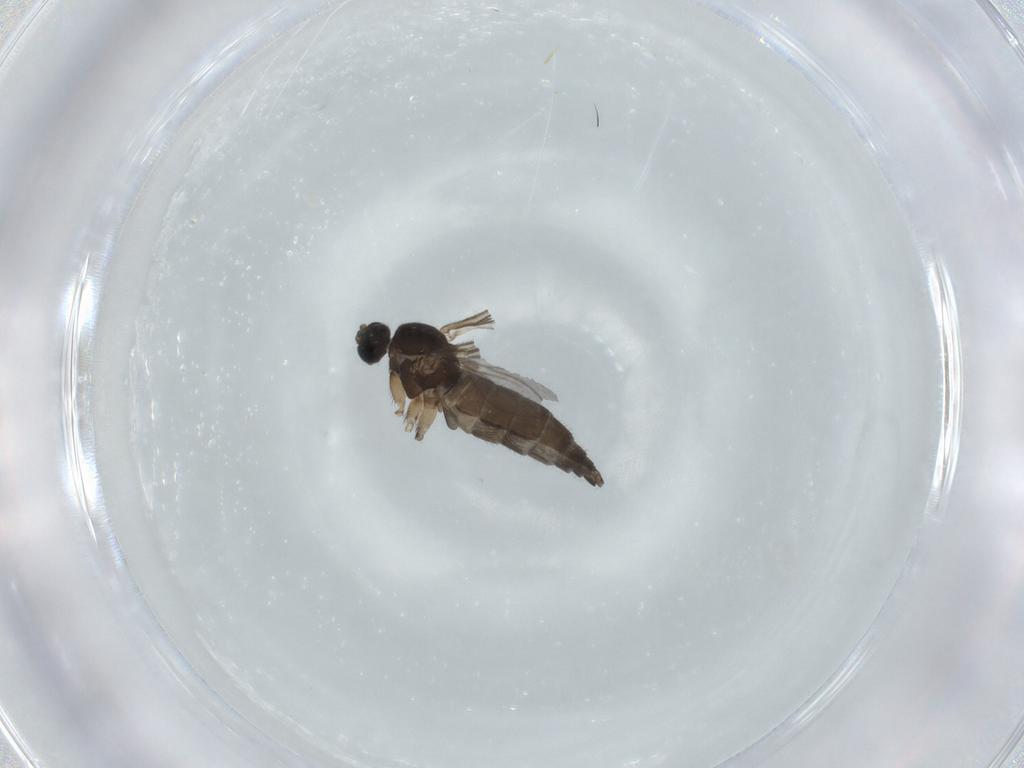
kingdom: Animalia
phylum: Arthropoda
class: Insecta
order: Diptera
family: Sciaridae
